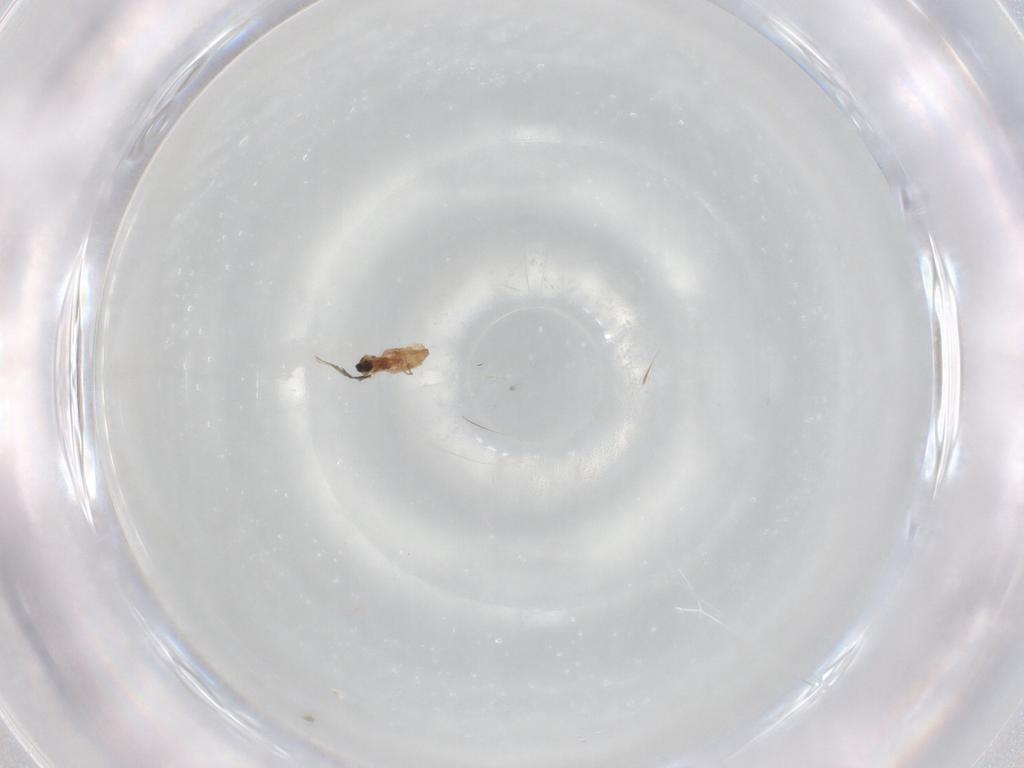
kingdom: Animalia
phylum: Arthropoda
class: Insecta
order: Diptera
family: Cecidomyiidae
